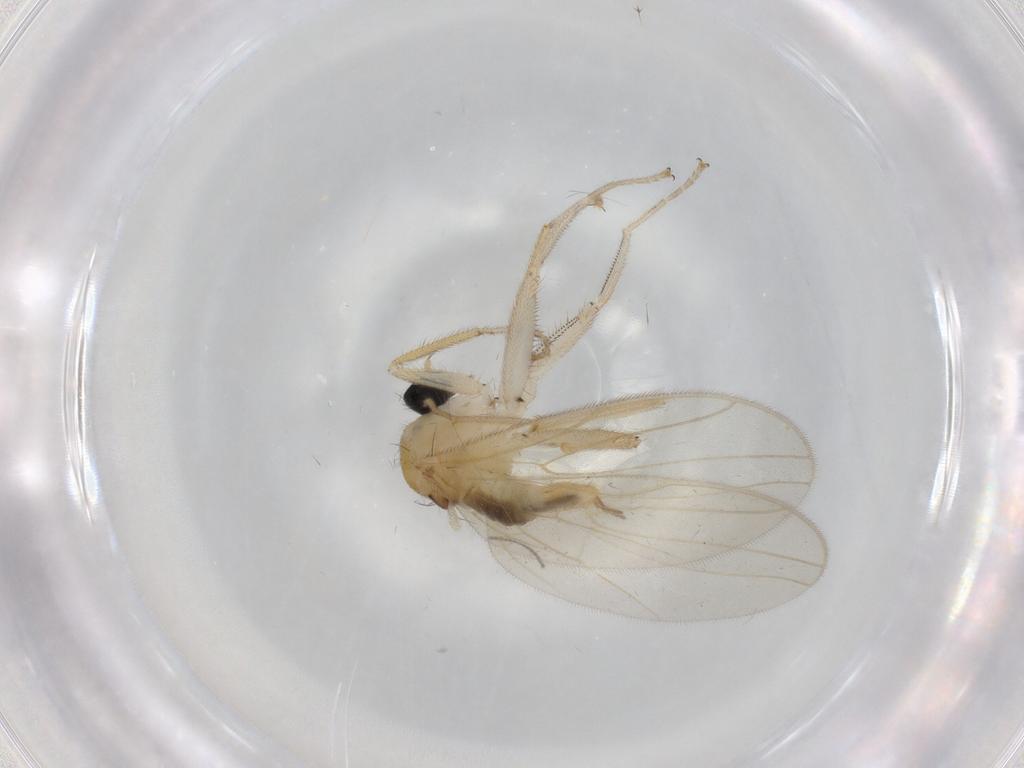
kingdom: Animalia
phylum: Arthropoda
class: Insecta
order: Diptera
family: Hybotidae
